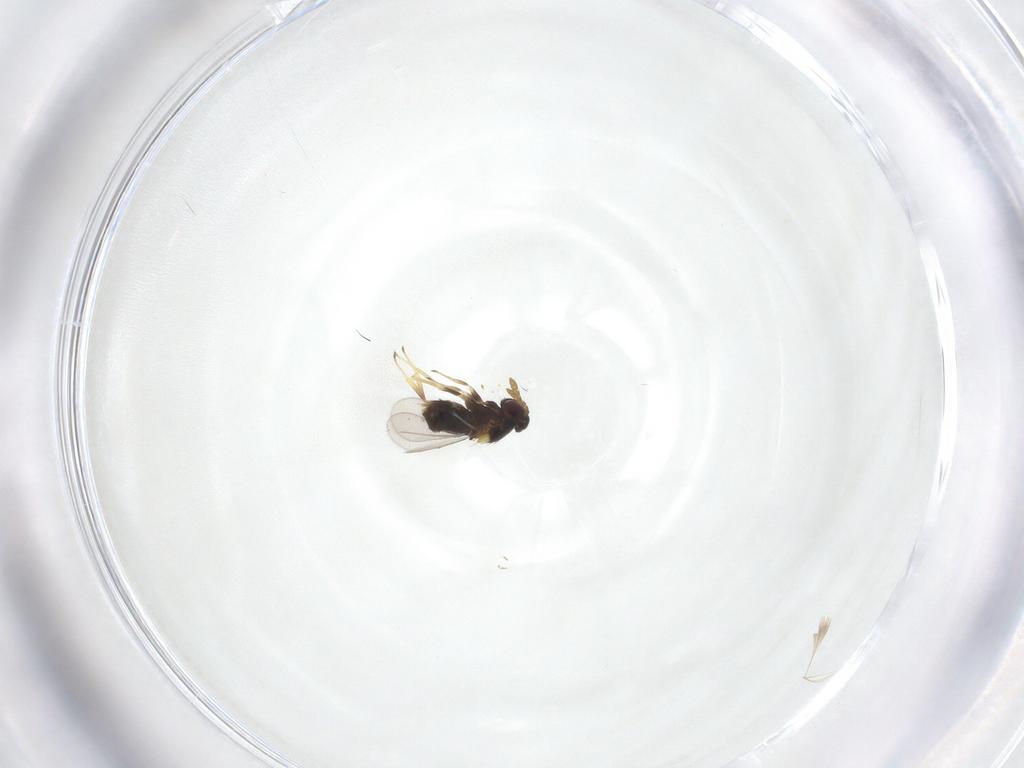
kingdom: Animalia
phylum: Arthropoda
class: Insecta
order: Hymenoptera
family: Aphelinidae
